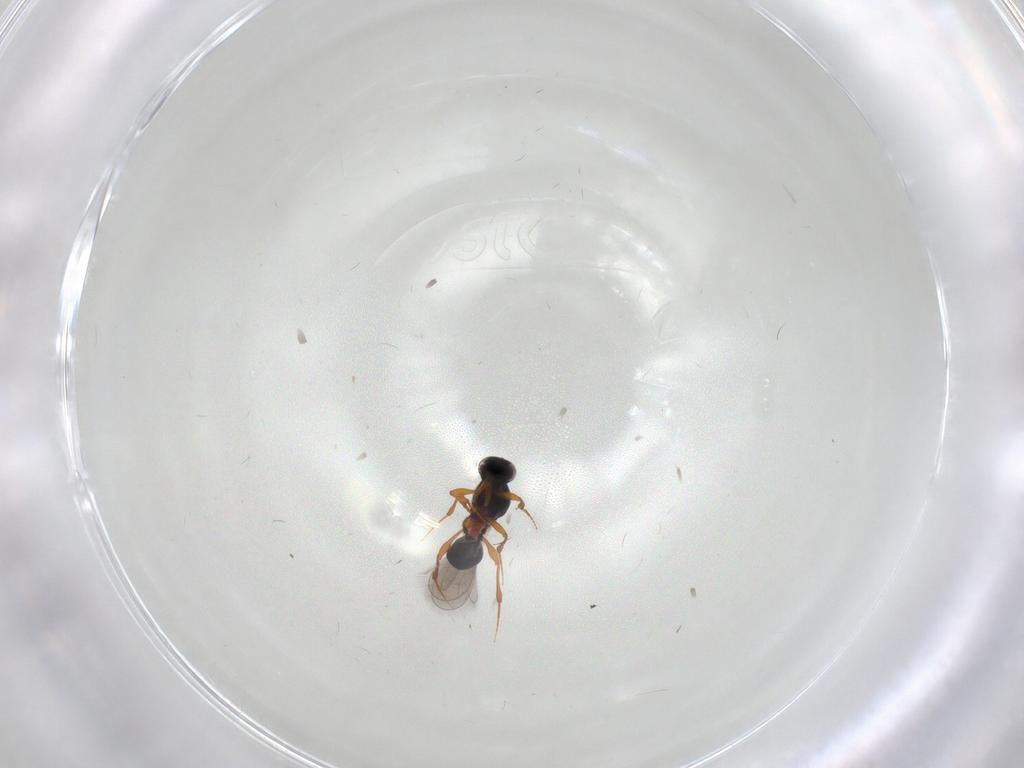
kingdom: Animalia
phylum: Arthropoda
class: Insecta
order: Hymenoptera
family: Platygastridae
